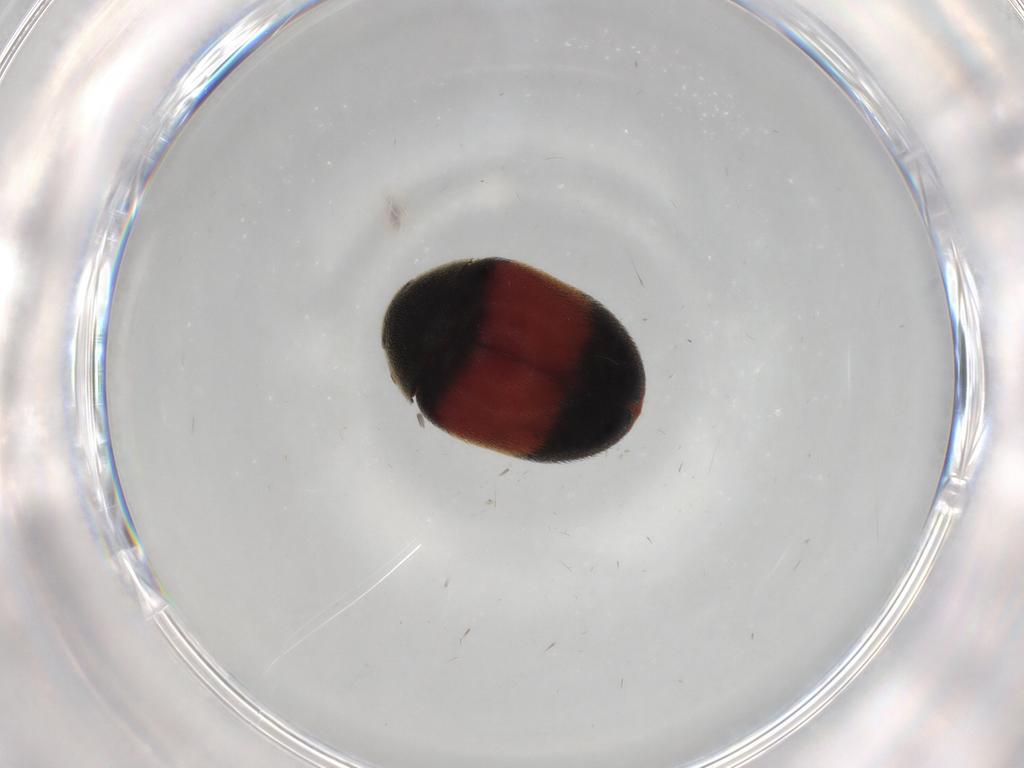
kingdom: Animalia
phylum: Arthropoda
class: Insecta
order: Coleoptera
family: Dermestidae
